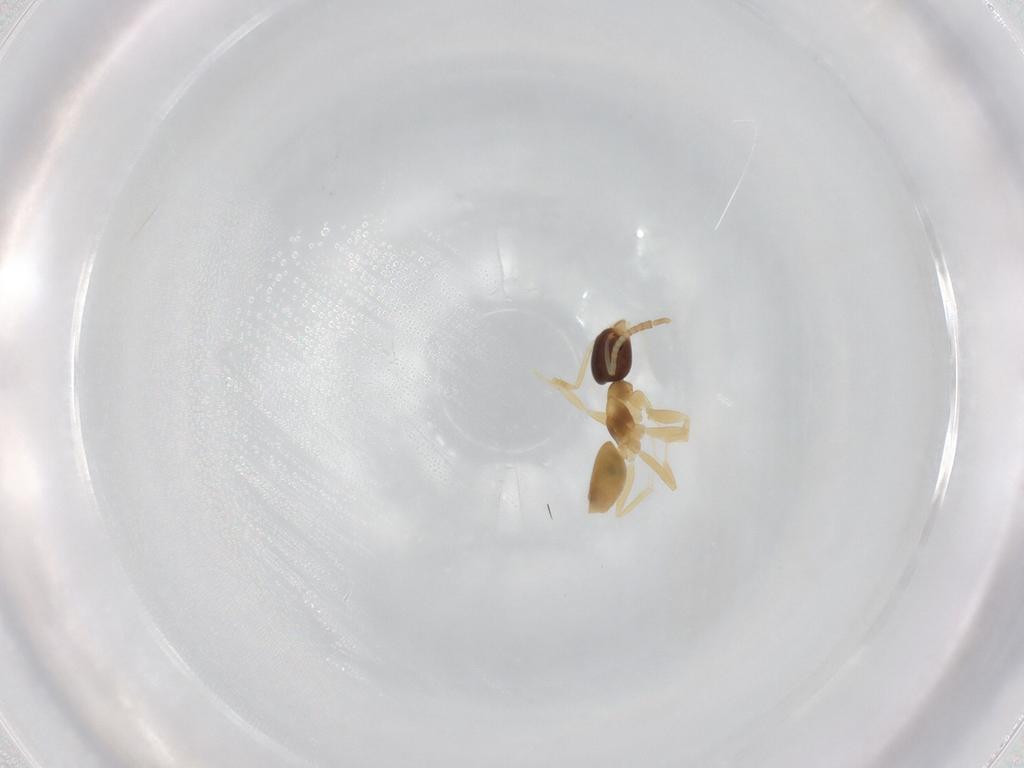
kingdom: Animalia
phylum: Arthropoda
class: Insecta
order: Hymenoptera
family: Formicidae
